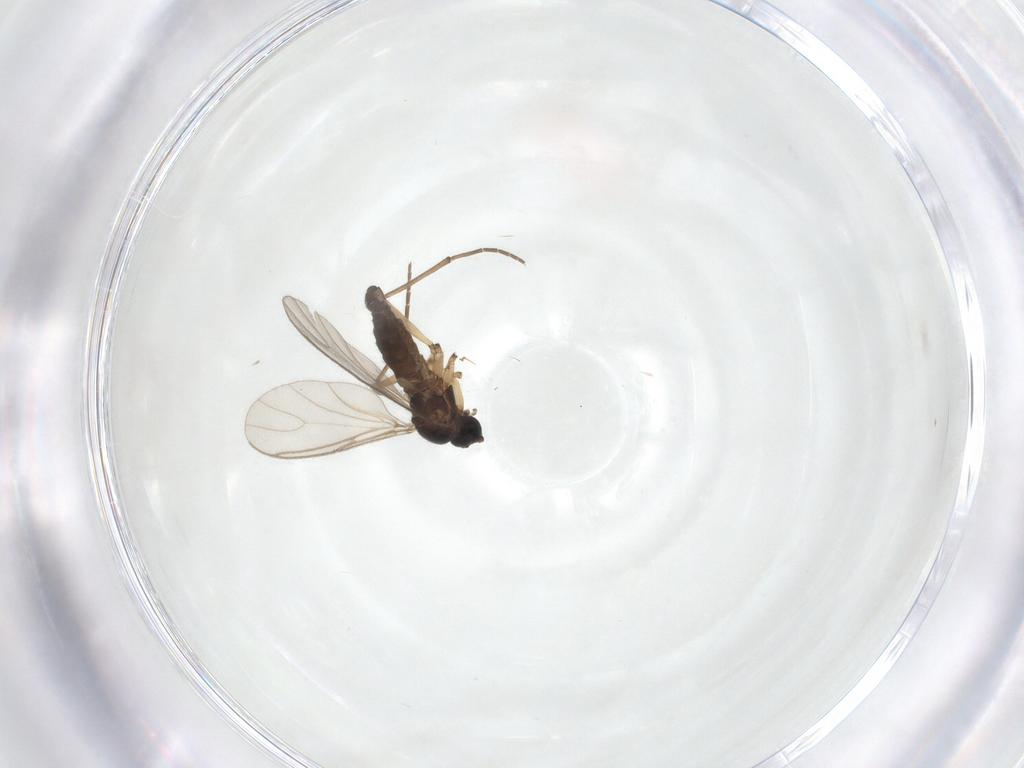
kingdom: Animalia
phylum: Arthropoda
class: Insecta
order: Diptera
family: Sciaridae
